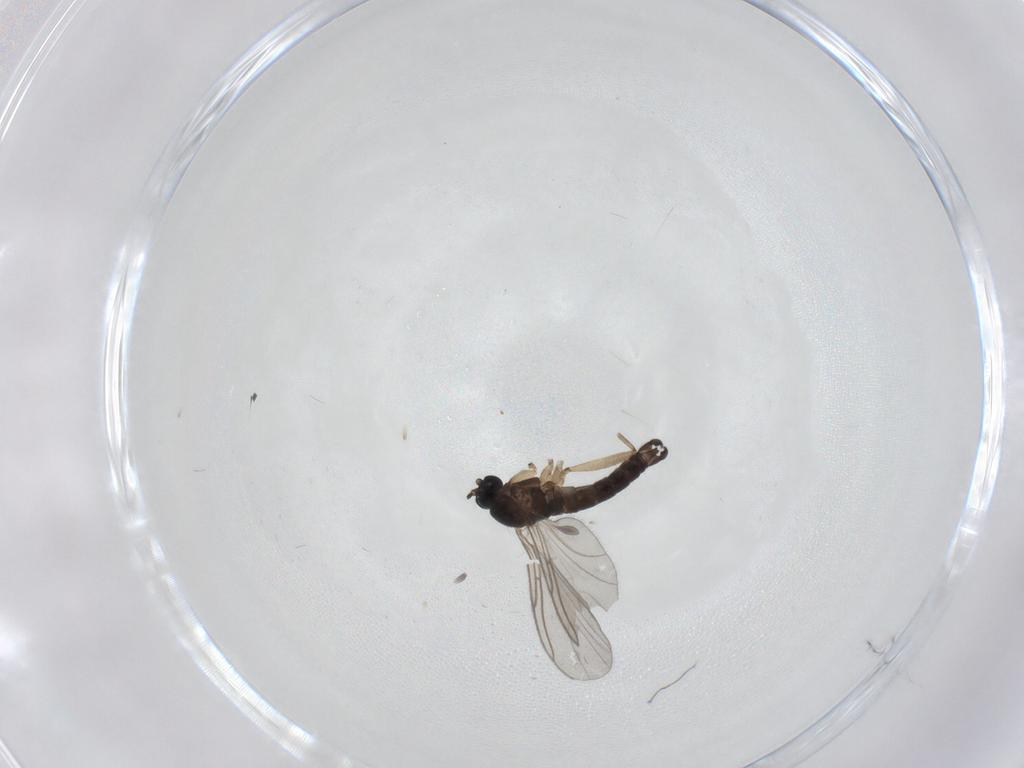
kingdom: Animalia
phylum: Arthropoda
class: Insecta
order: Diptera
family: Sciaridae
